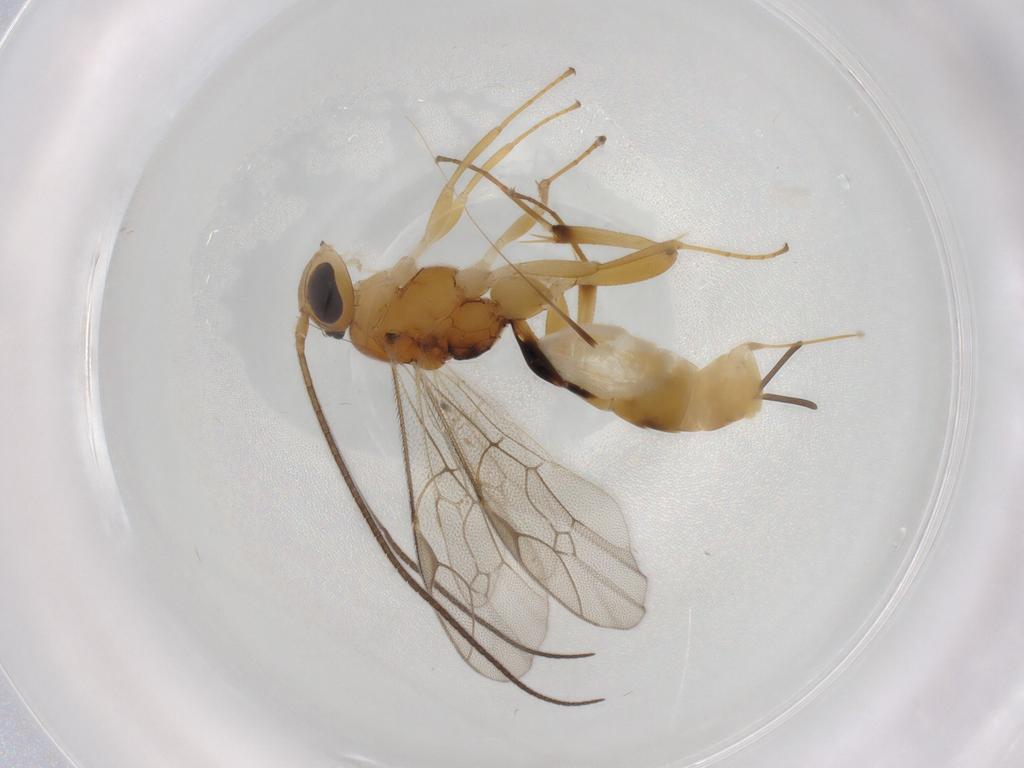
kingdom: Animalia
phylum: Arthropoda
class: Insecta
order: Hymenoptera
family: Ichneumonidae
